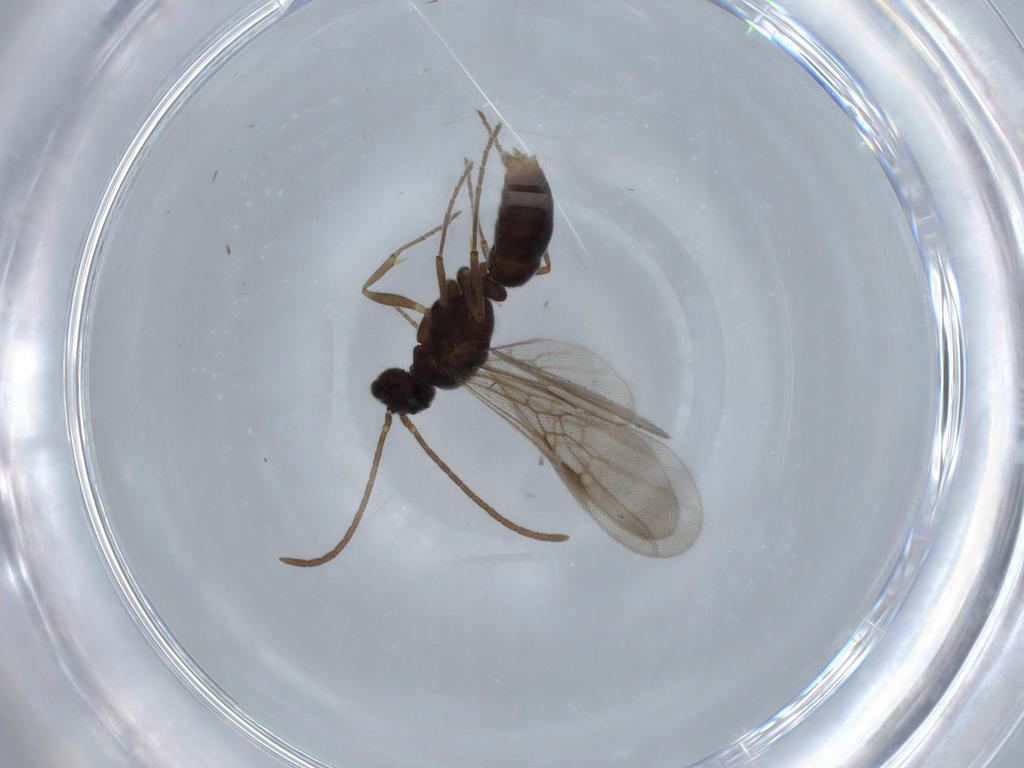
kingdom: Animalia
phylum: Arthropoda
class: Insecta
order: Hymenoptera
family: Formicidae
